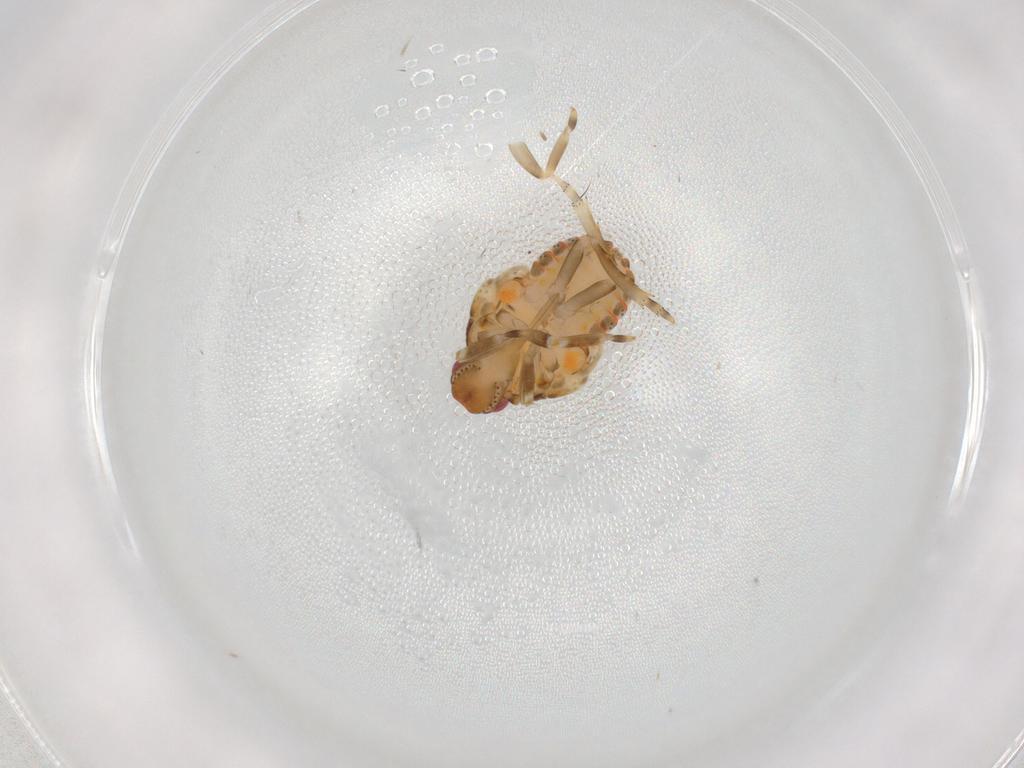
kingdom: Animalia
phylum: Arthropoda
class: Insecta
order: Hemiptera
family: Flatidae
